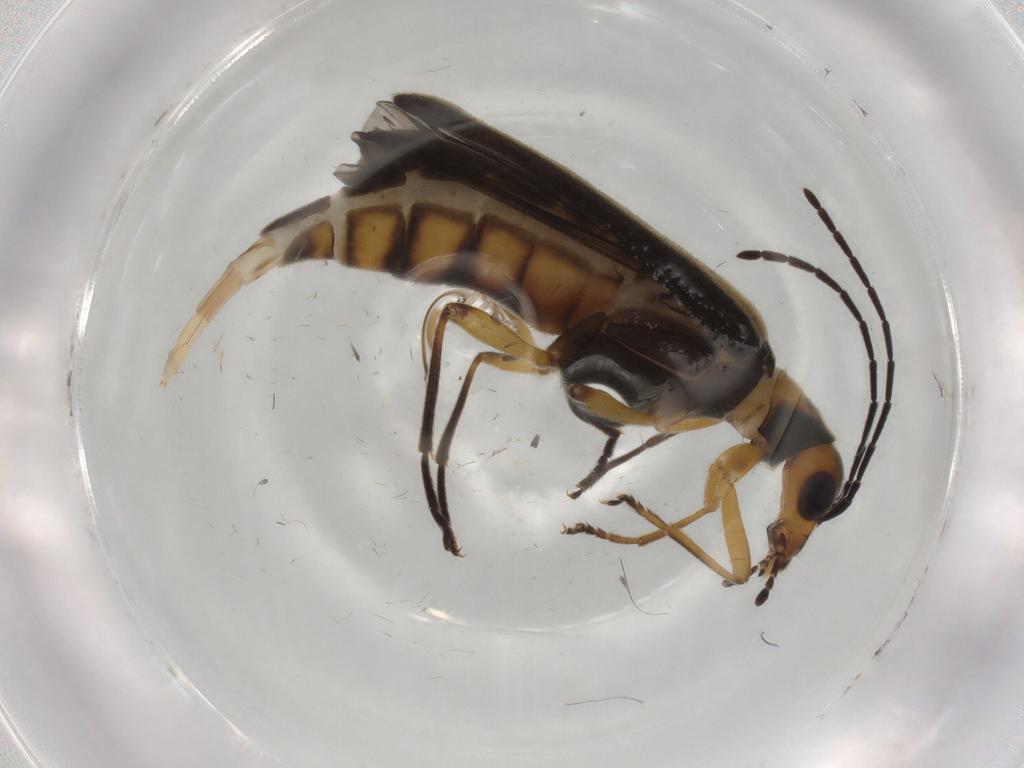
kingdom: Animalia
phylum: Arthropoda
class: Insecta
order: Coleoptera
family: Oedemeridae
